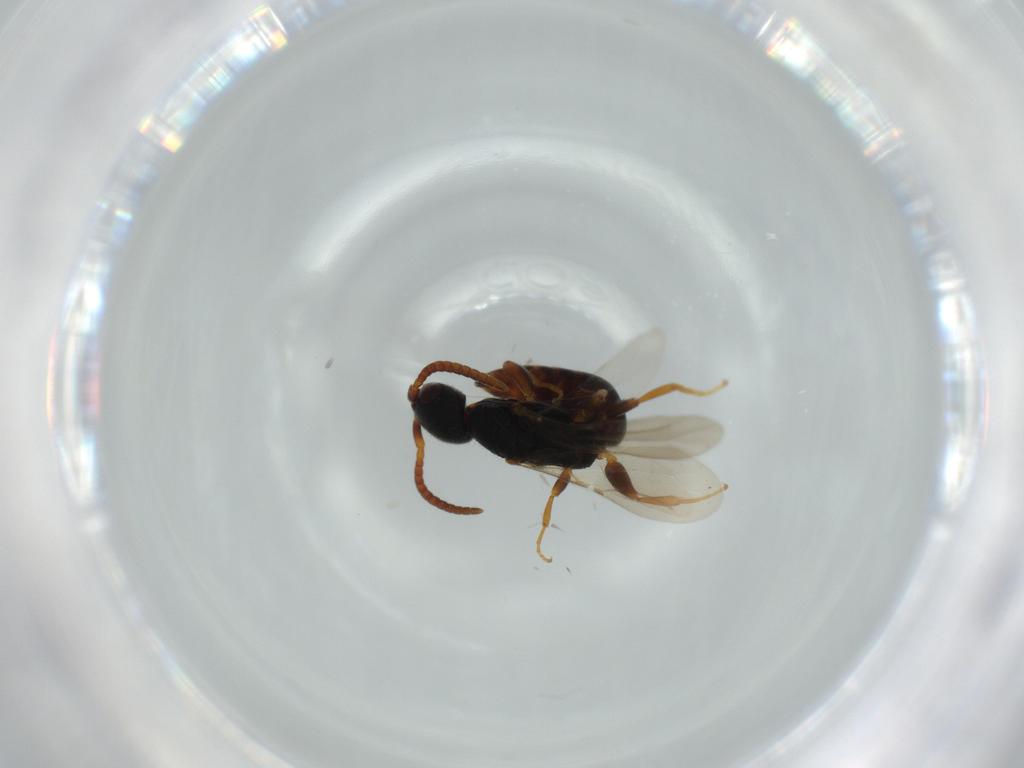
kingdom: Animalia
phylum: Arthropoda
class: Insecta
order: Hymenoptera
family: Bethylidae
